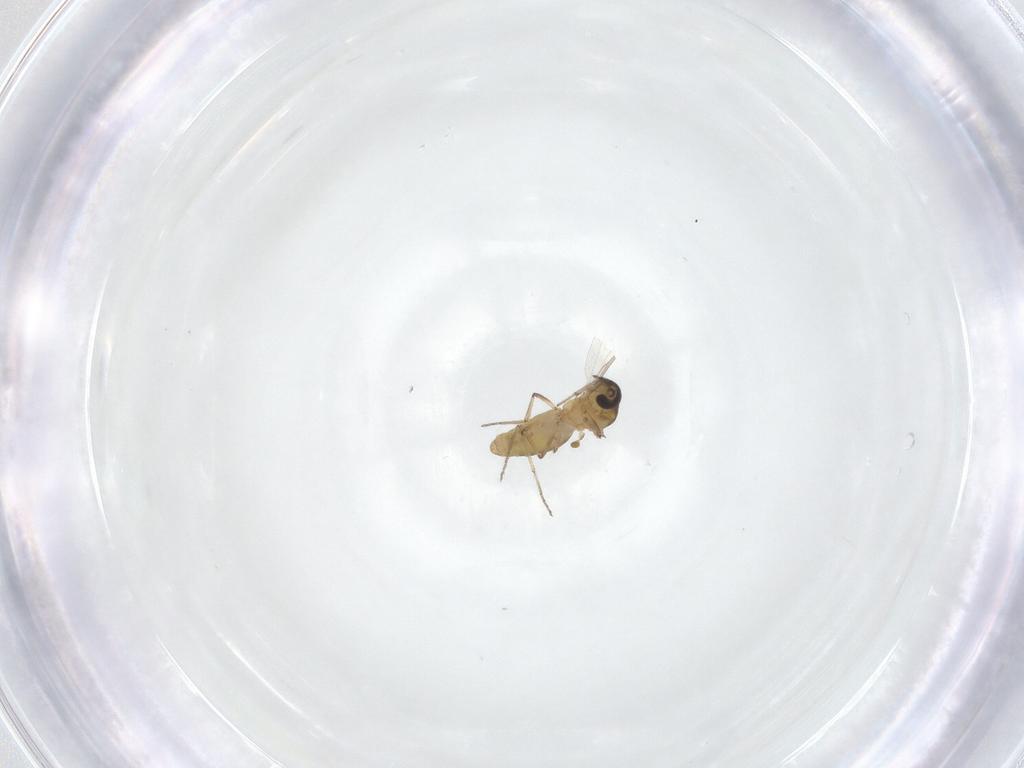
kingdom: Animalia
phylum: Arthropoda
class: Insecta
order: Diptera
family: Ceratopogonidae
